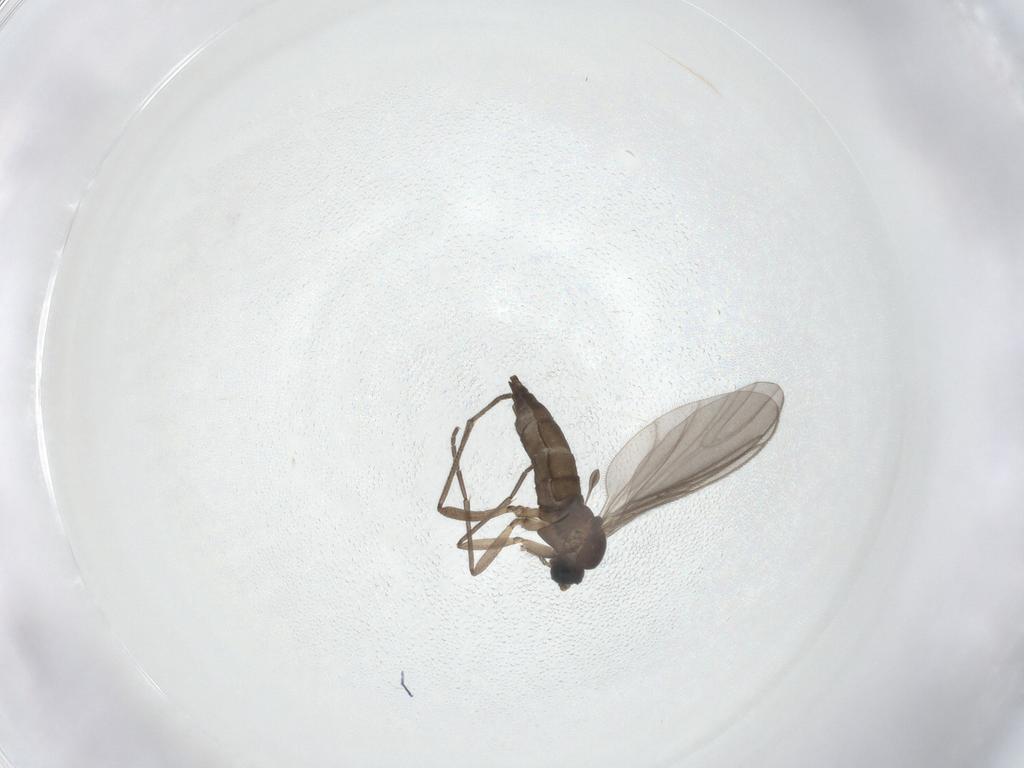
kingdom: Animalia
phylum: Arthropoda
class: Insecta
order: Diptera
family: Sciaridae
